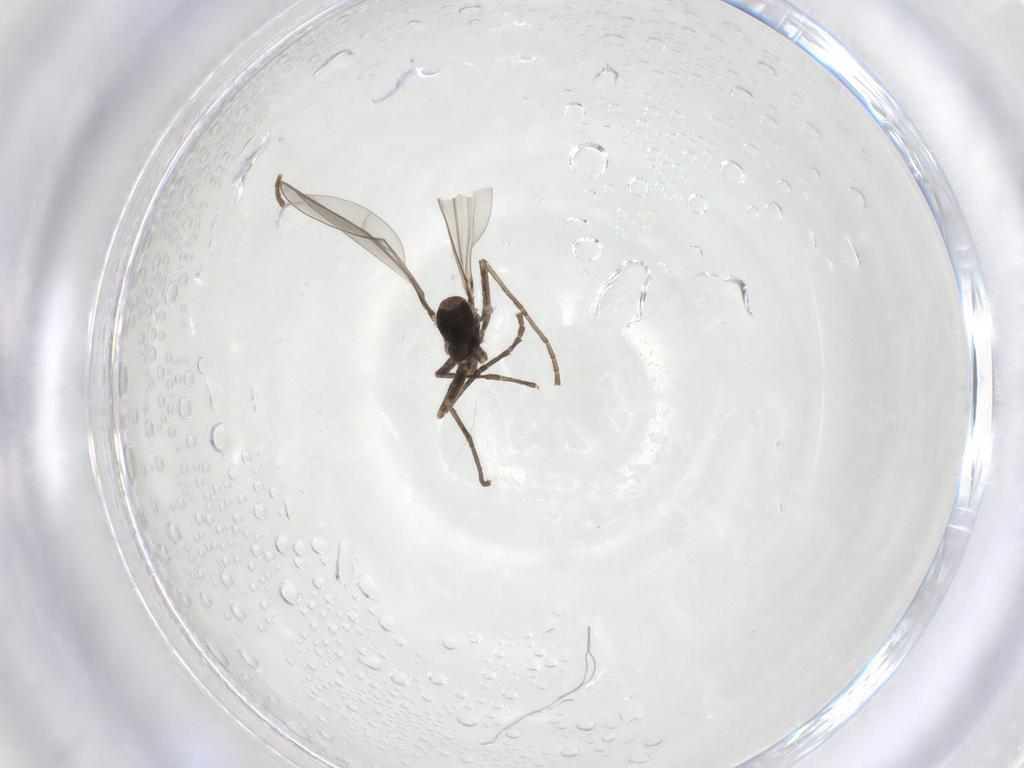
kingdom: Animalia
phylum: Arthropoda
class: Insecta
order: Diptera
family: Cecidomyiidae
